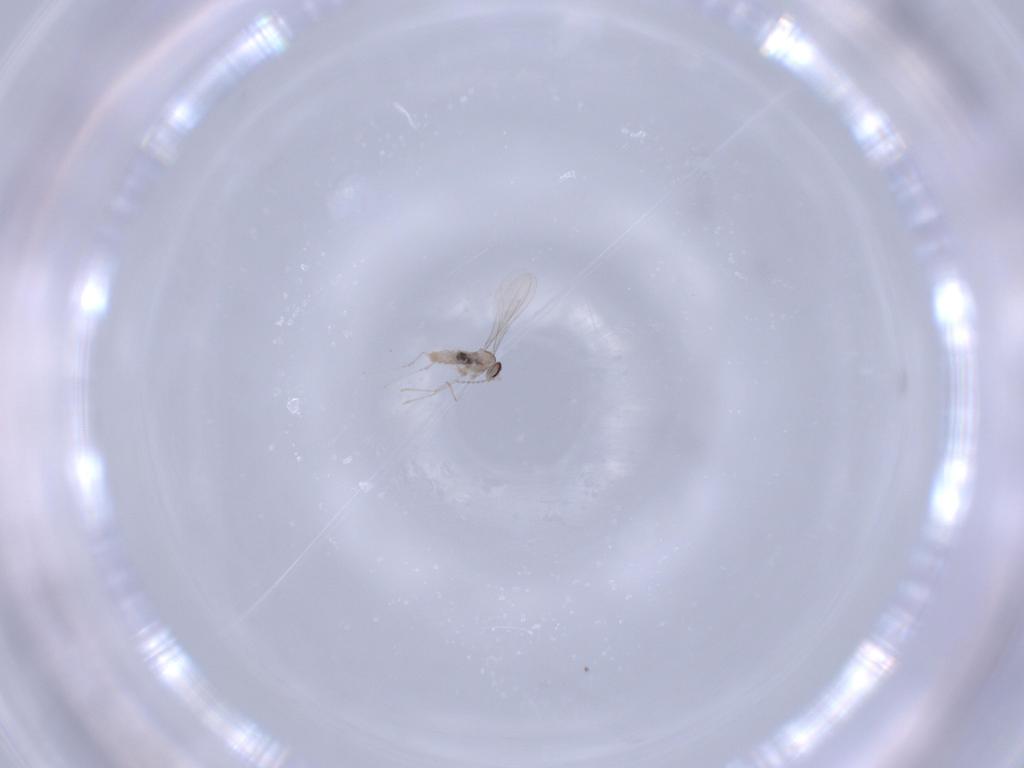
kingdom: Animalia
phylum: Arthropoda
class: Insecta
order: Diptera
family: Cecidomyiidae
